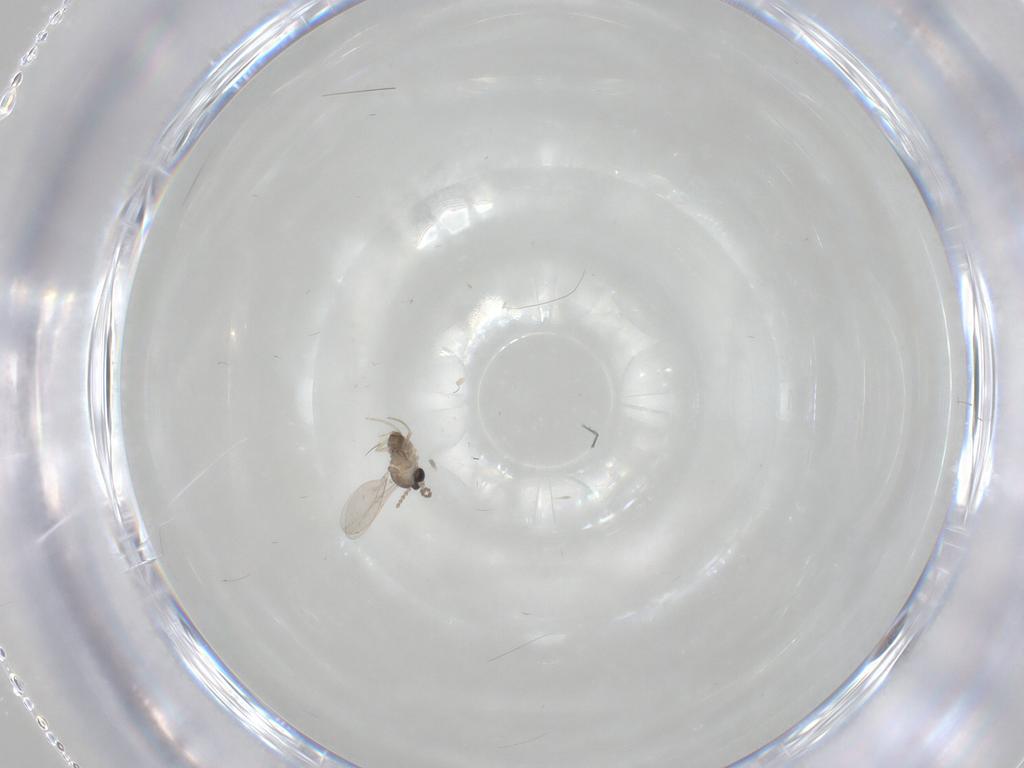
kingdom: Animalia
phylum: Arthropoda
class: Insecta
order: Diptera
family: Cecidomyiidae
